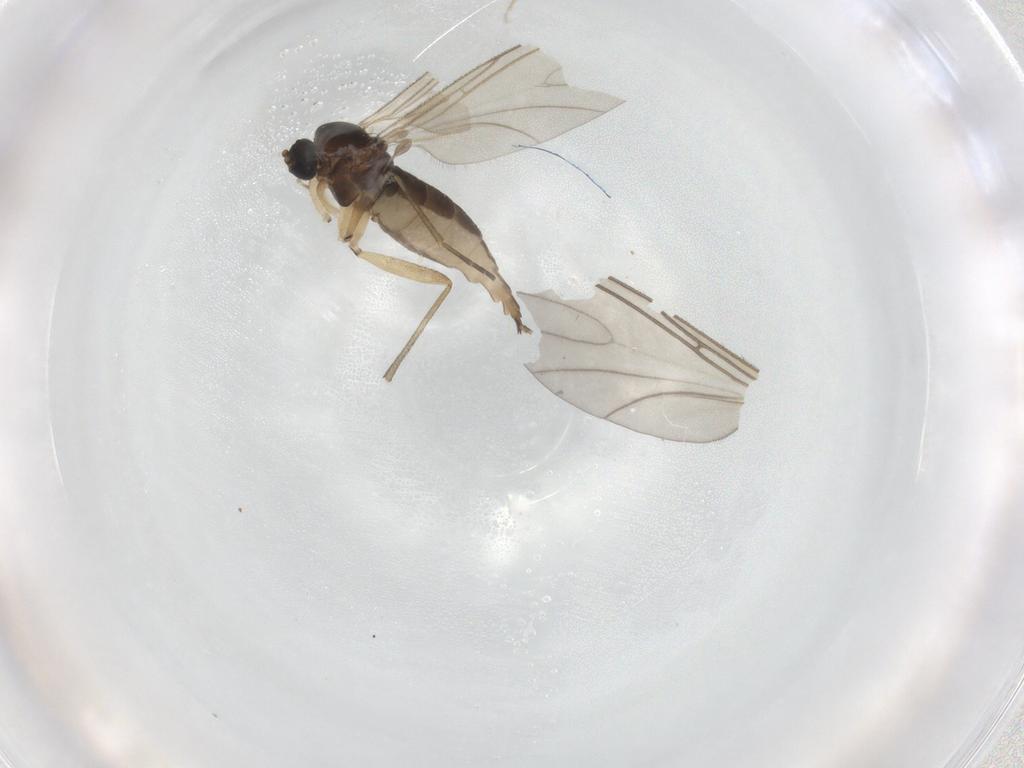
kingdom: Animalia
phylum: Arthropoda
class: Insecta
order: Diptera
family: Sciaridae
